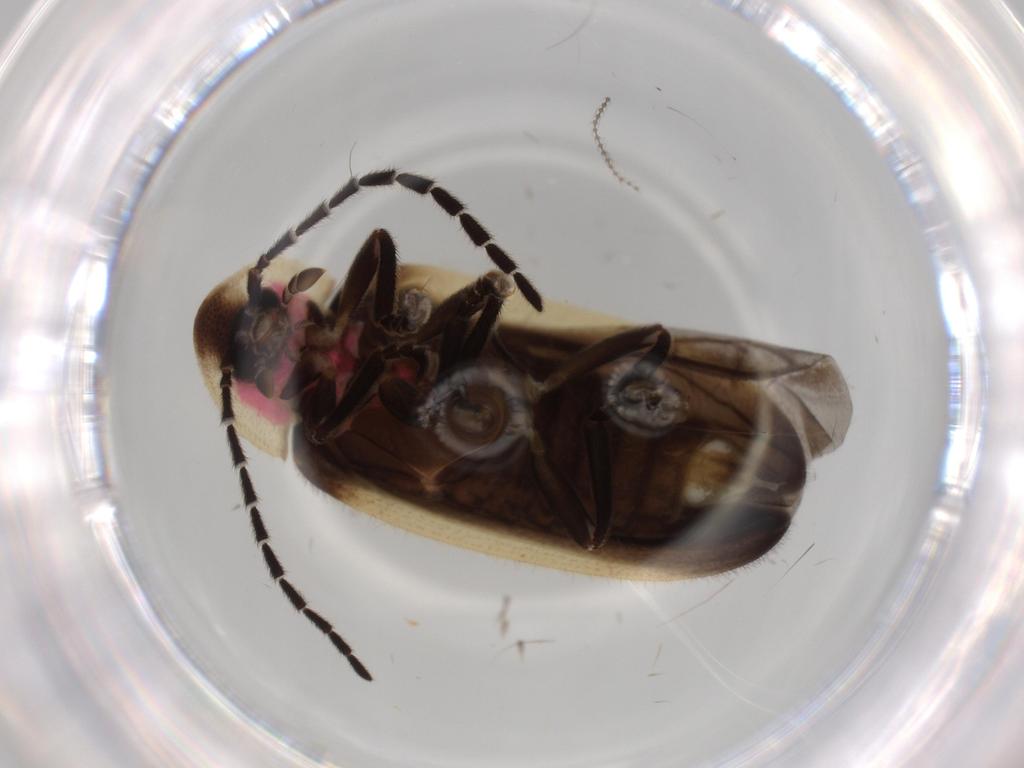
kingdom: Animalia
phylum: Arthropoda
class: Insecta
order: Coleoptera
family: Lampyridae
